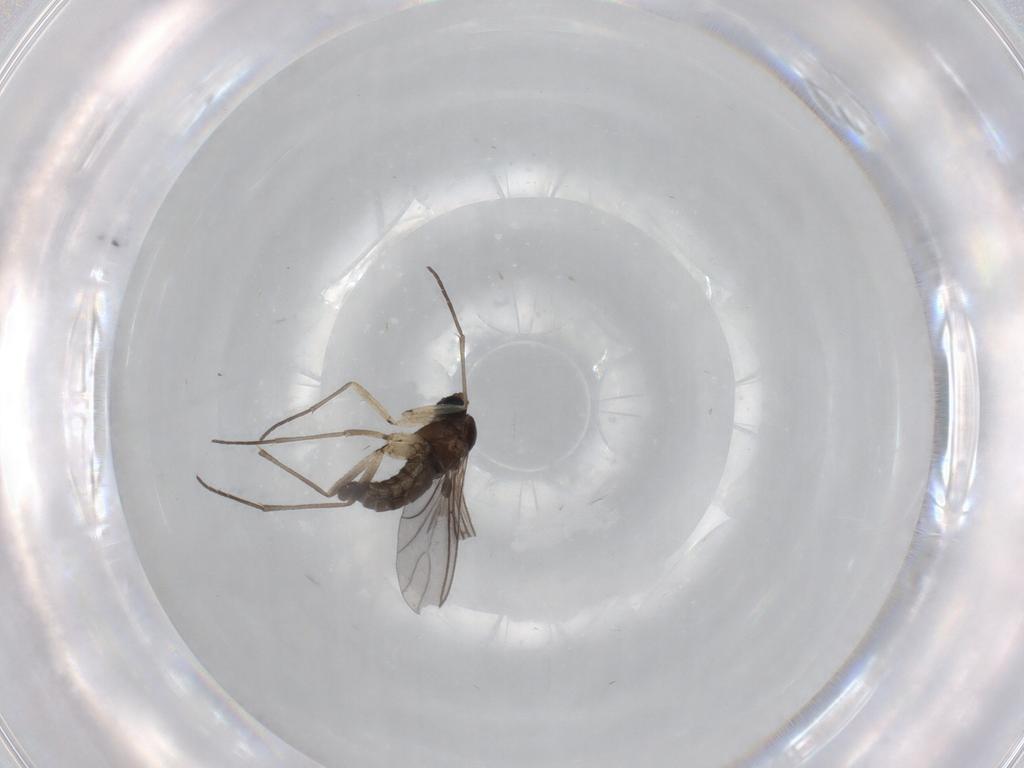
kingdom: Animalia
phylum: Arthropoda
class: Insecta
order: Diptera
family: Sciaridae
